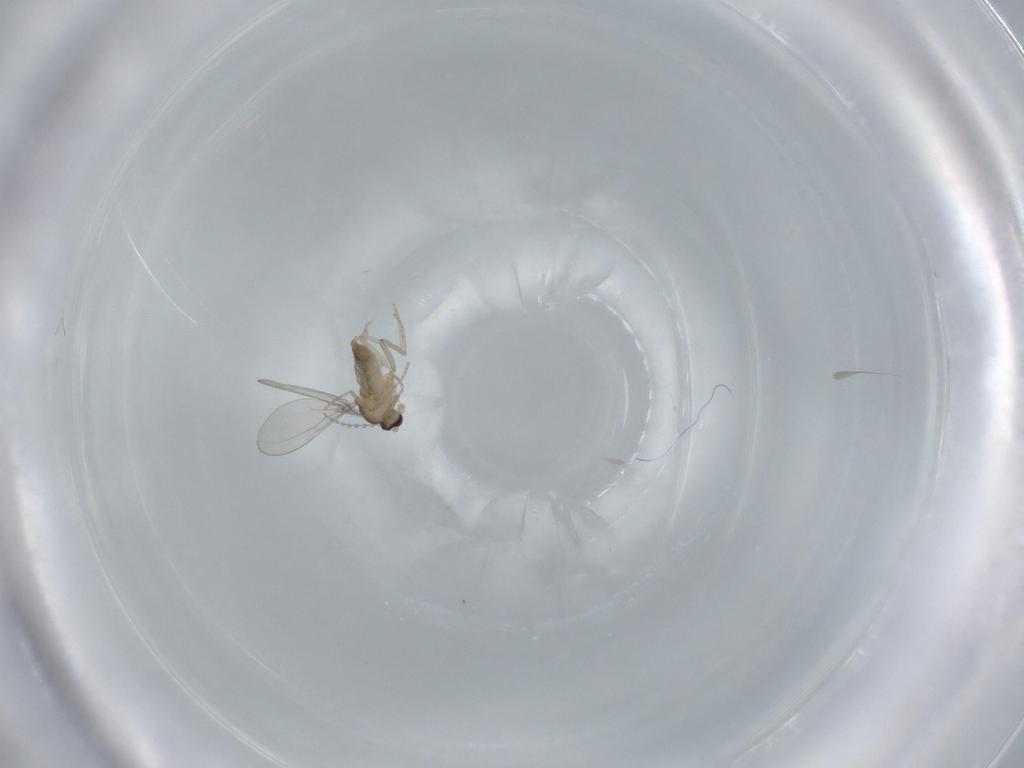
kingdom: Animalia
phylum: Arthropoda
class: Insecta
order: Diptera
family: Cecidomyiidae
